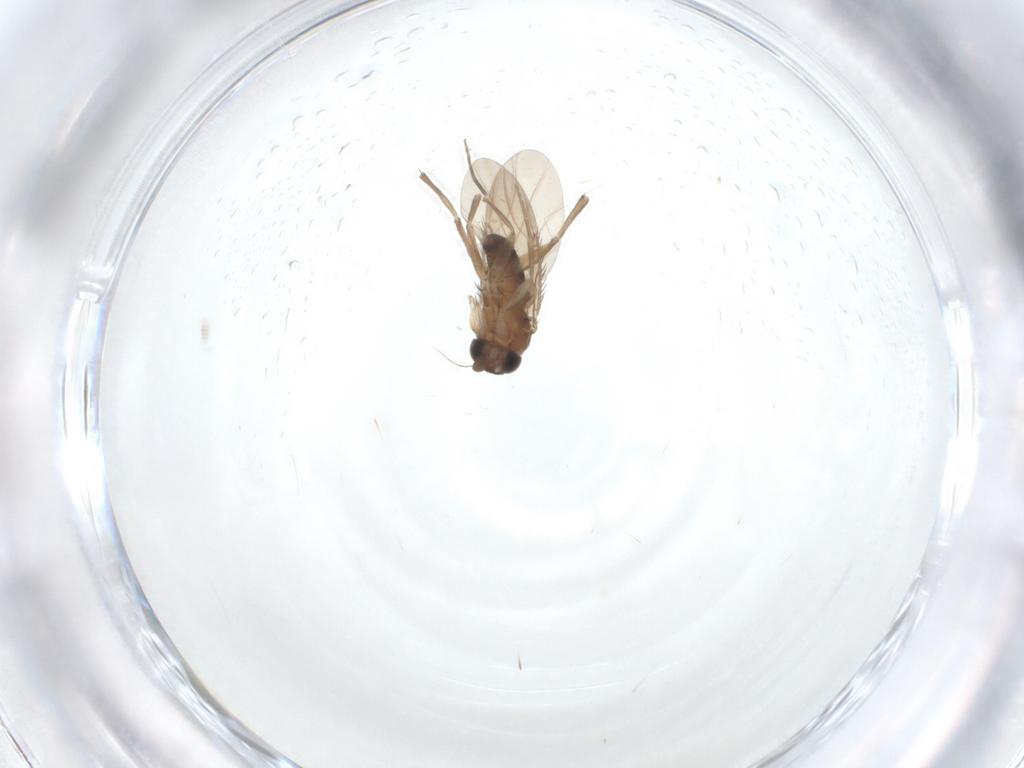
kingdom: Animalia
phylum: Arthropoda
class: Insecta
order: Diptera
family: Phoridae
